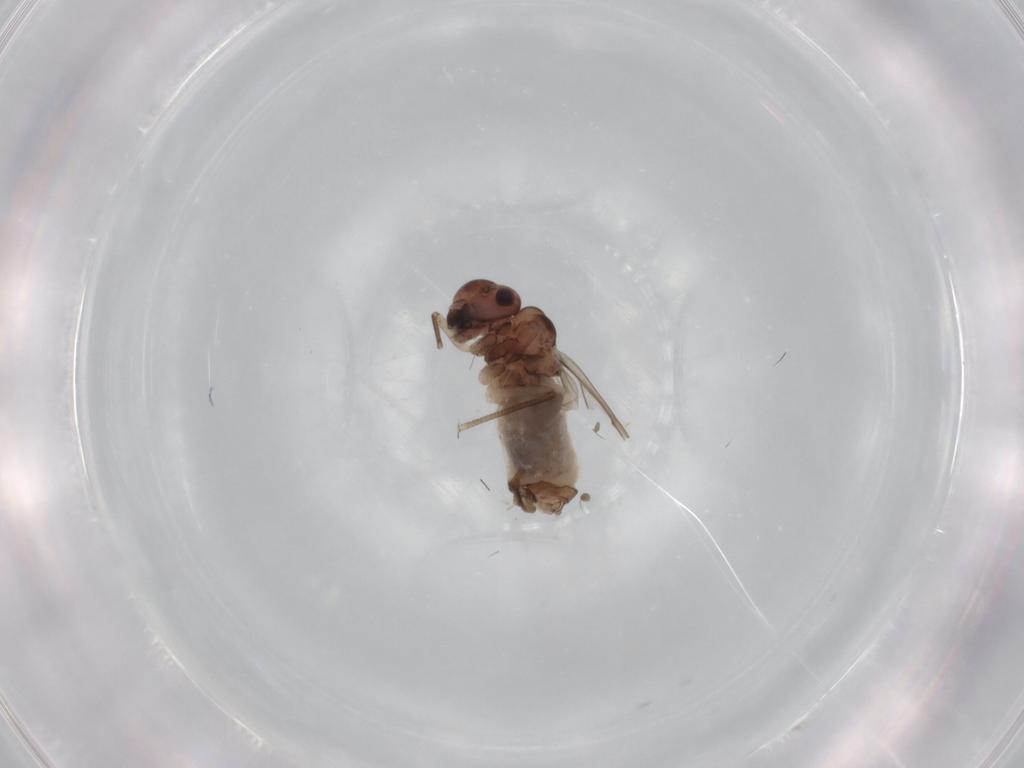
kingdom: Animalia
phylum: Arthropoda
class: Insecta
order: Psocodea
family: Peripsocidae
